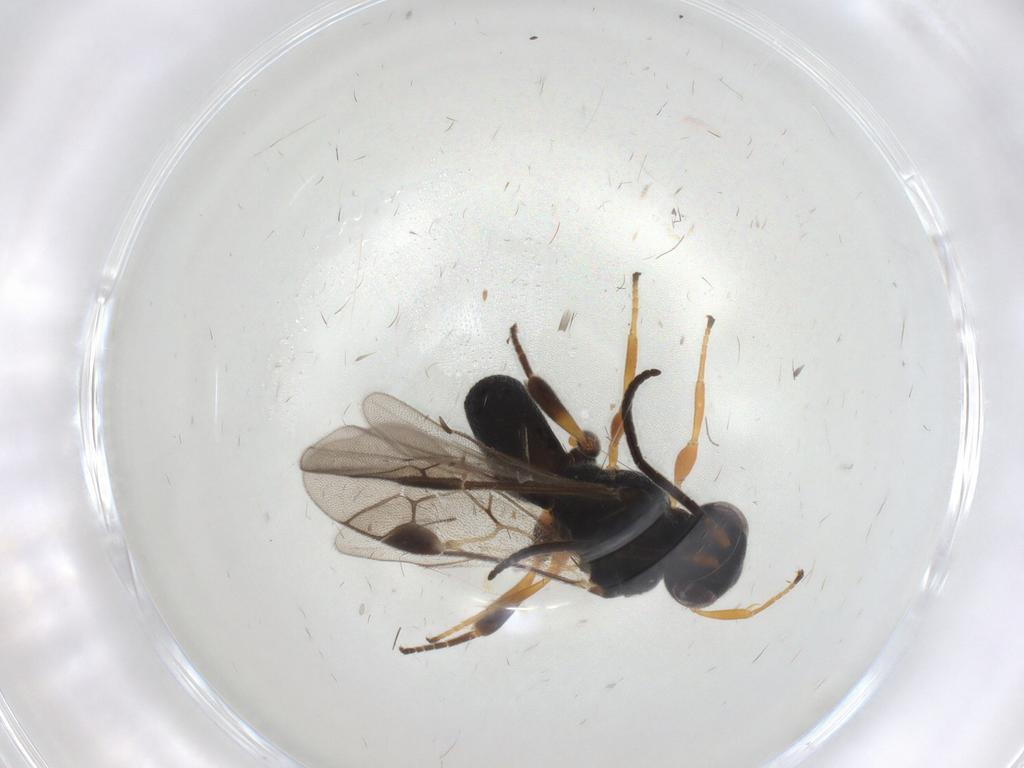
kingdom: Animalia
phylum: Arthropoda
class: Insecta
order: Hymenoptera
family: Braconidae
